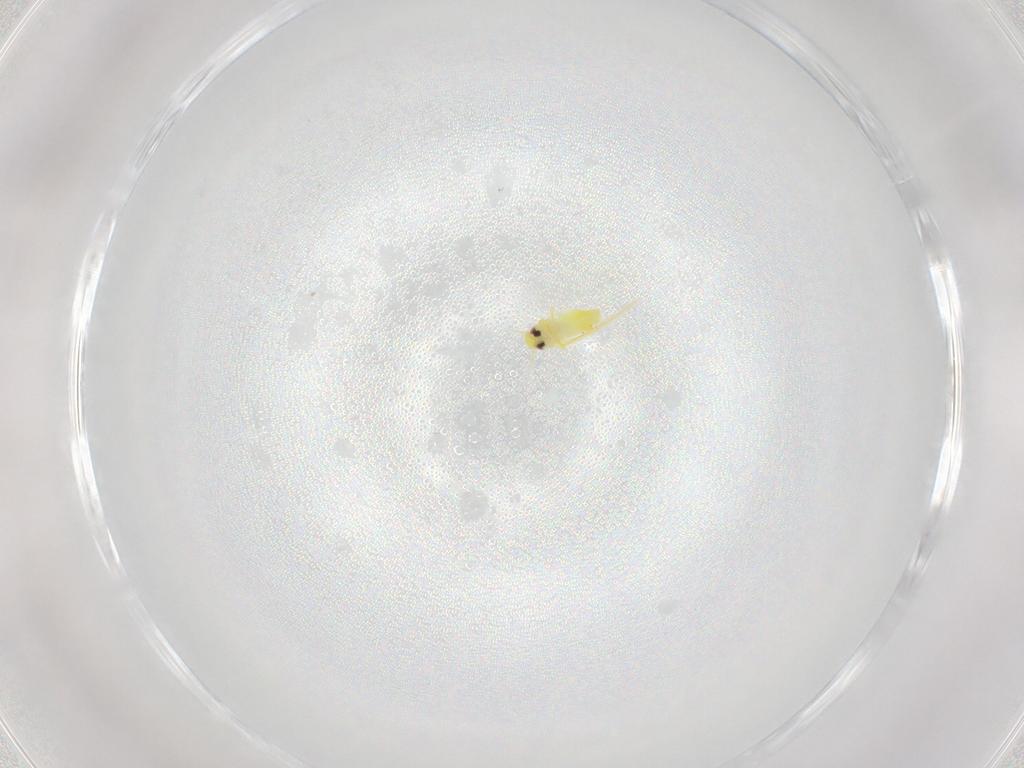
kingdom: Animalia
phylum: Arthropoda
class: Insecta
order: Hemiptera
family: Aleyrodidae
